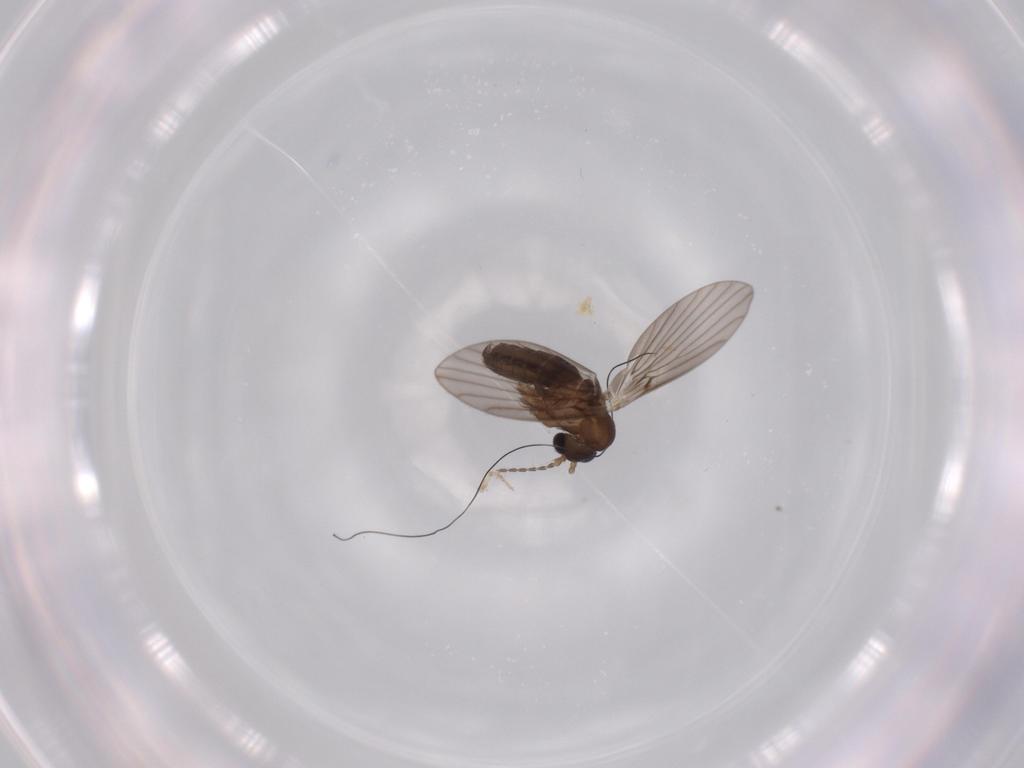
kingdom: Animalia
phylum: Arthropoda
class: Insecta
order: Diptera
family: Psychodidae
